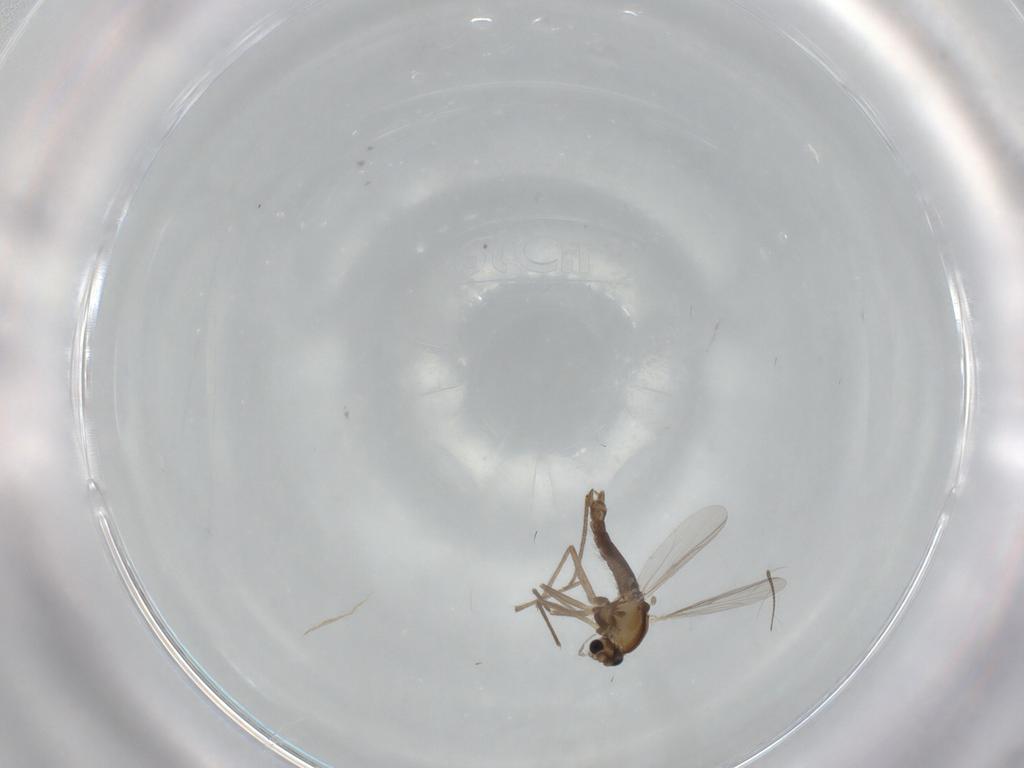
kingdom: Animalia
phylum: Arthropoda
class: Insecta
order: Diptera
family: Chironomidae
